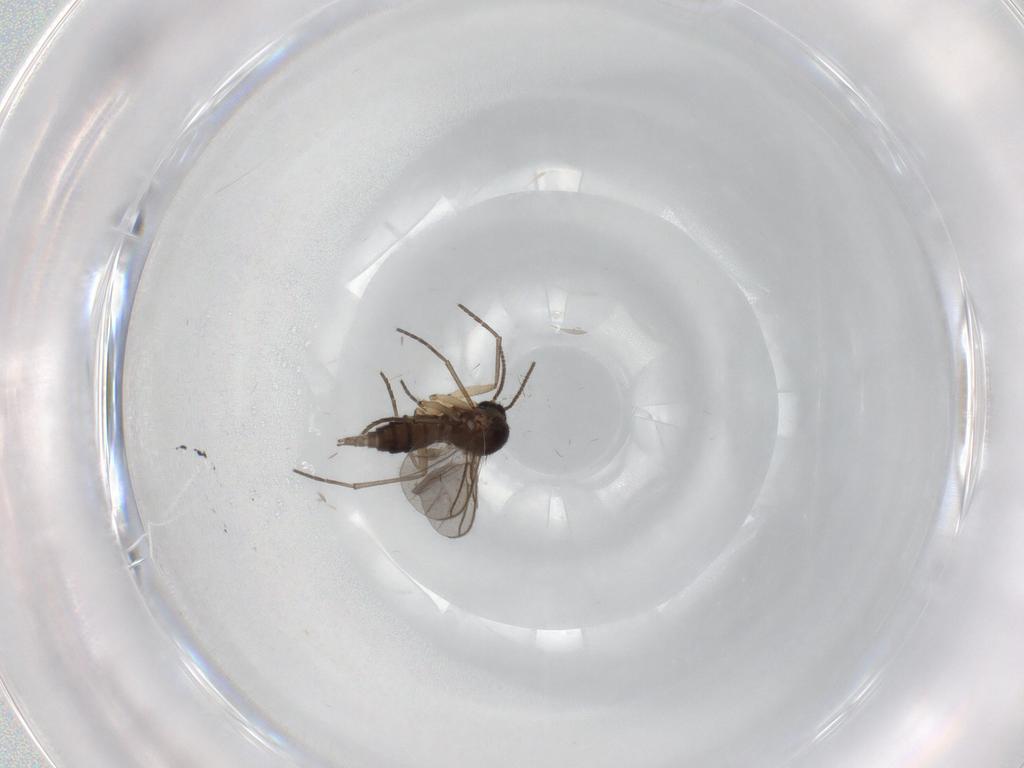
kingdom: Animalia
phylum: Arthropoda
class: Insecta
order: Diptera
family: Sciaridae
